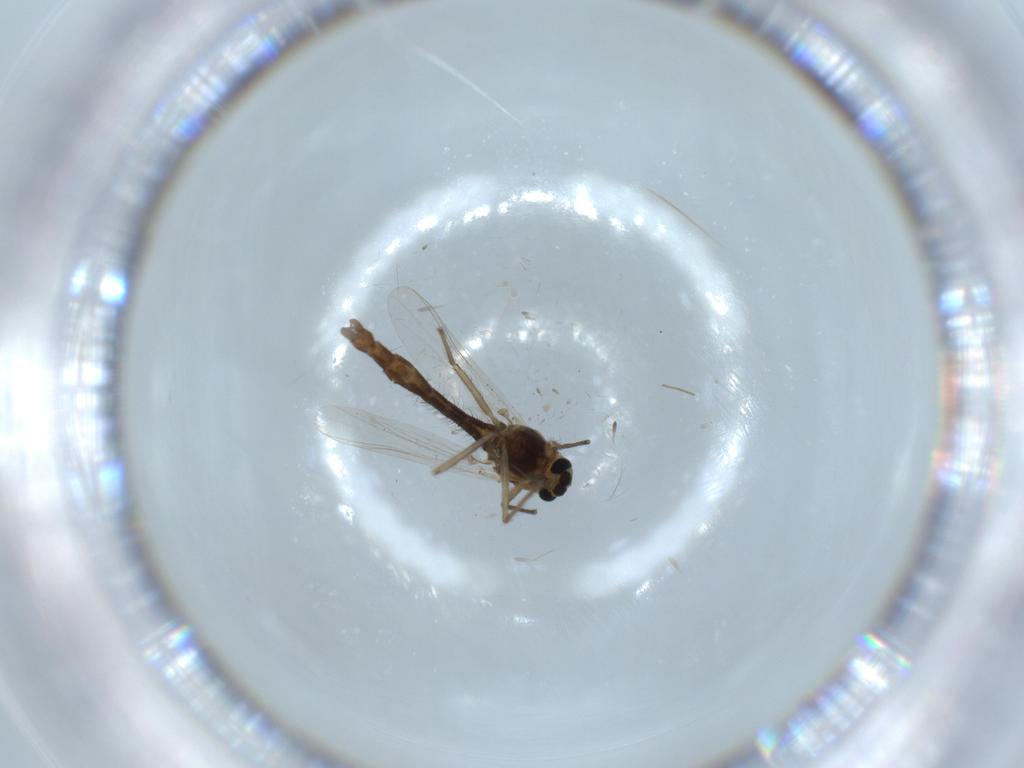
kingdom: Animalia
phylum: Arthropoda
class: Insecta
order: Diptera
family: Chironomidae
